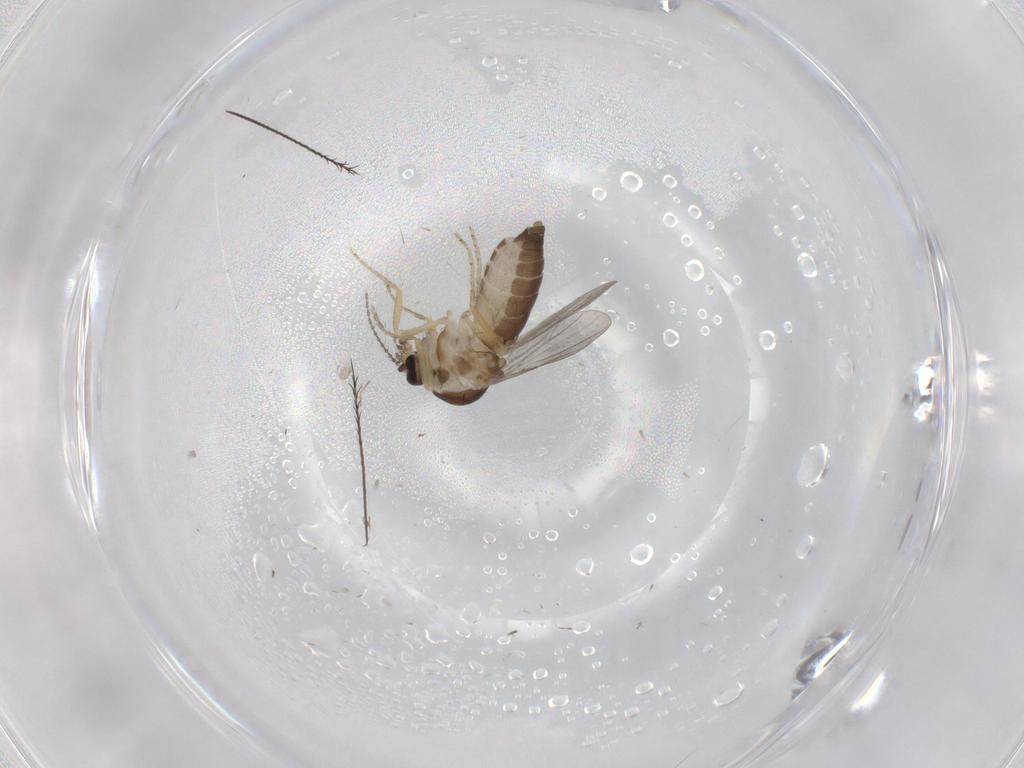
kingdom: Animalia
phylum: Arthropoda
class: Insecta
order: Diptera
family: Ceratopogonidae
